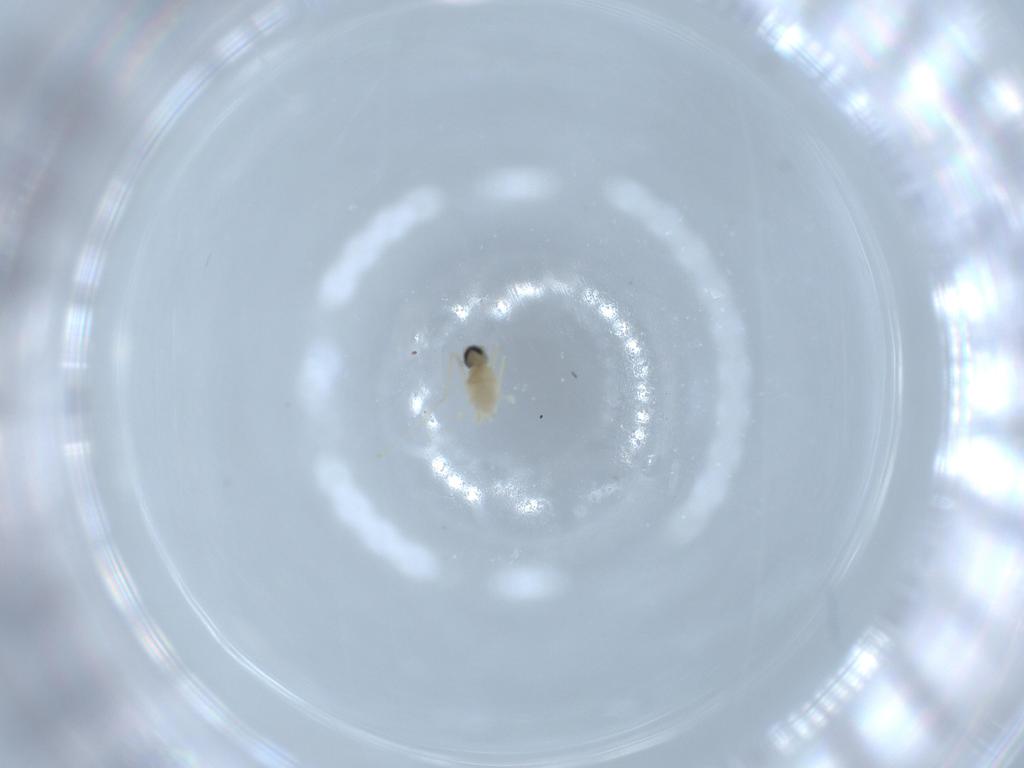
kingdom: Animalia
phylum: Arthropoda
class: Insecta
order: Diptera
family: Cecidomyiidae
